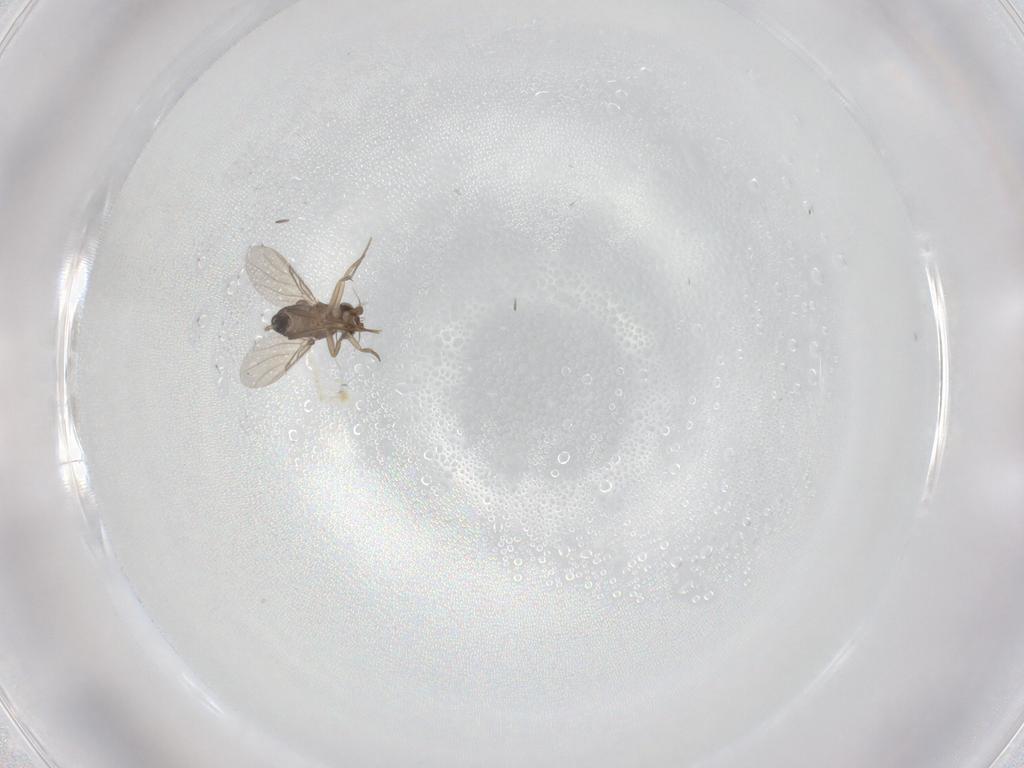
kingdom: Animalia
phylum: Arthropoda
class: Insecta
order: Diptera
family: Phoridae
